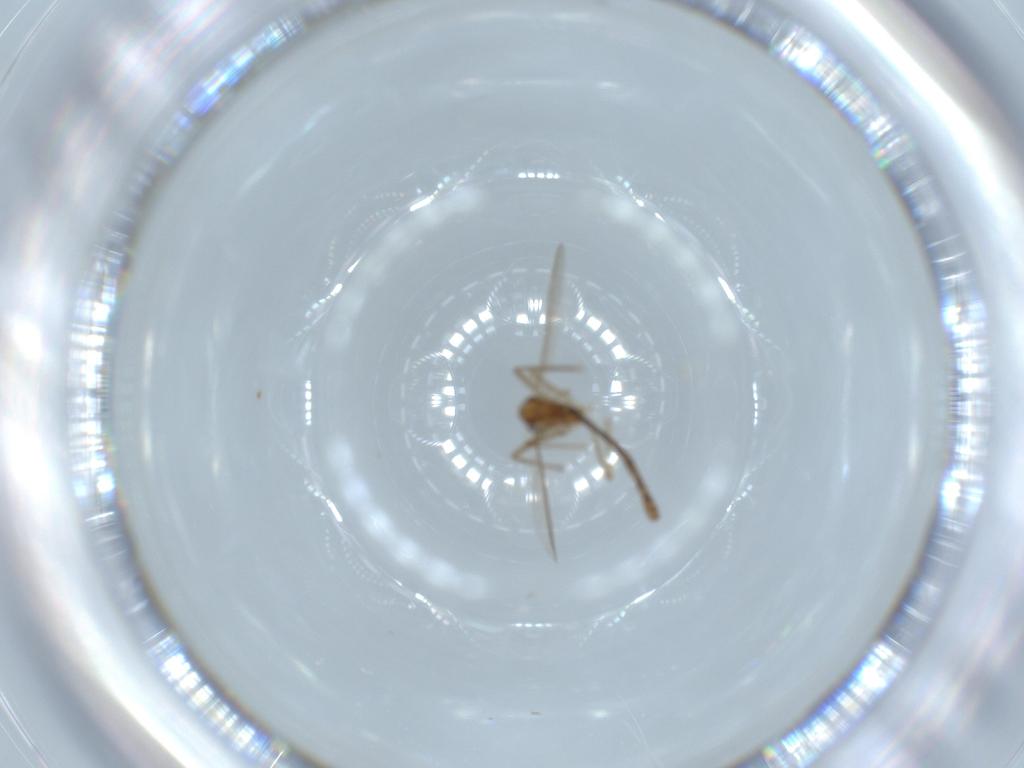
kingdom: Animalia
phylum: Arthropoda
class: Insecta
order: Diptera
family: Chironomidae
